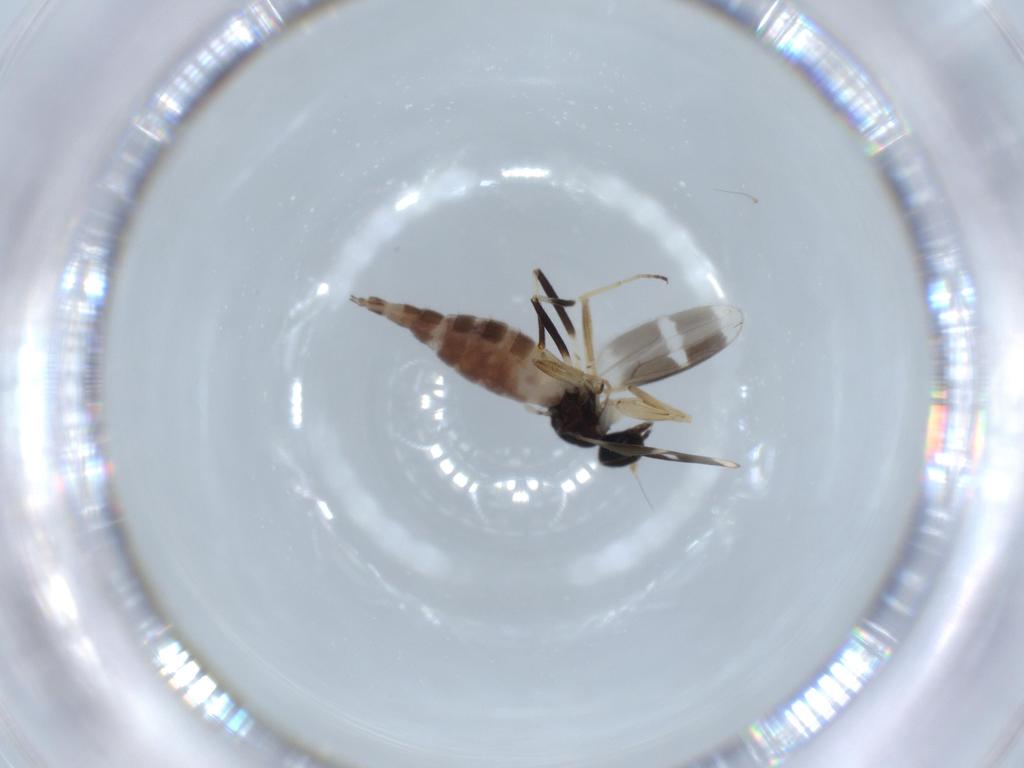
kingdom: Animalia
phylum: Arthropoda
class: Insecta
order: Diptera
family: Hybotidae
